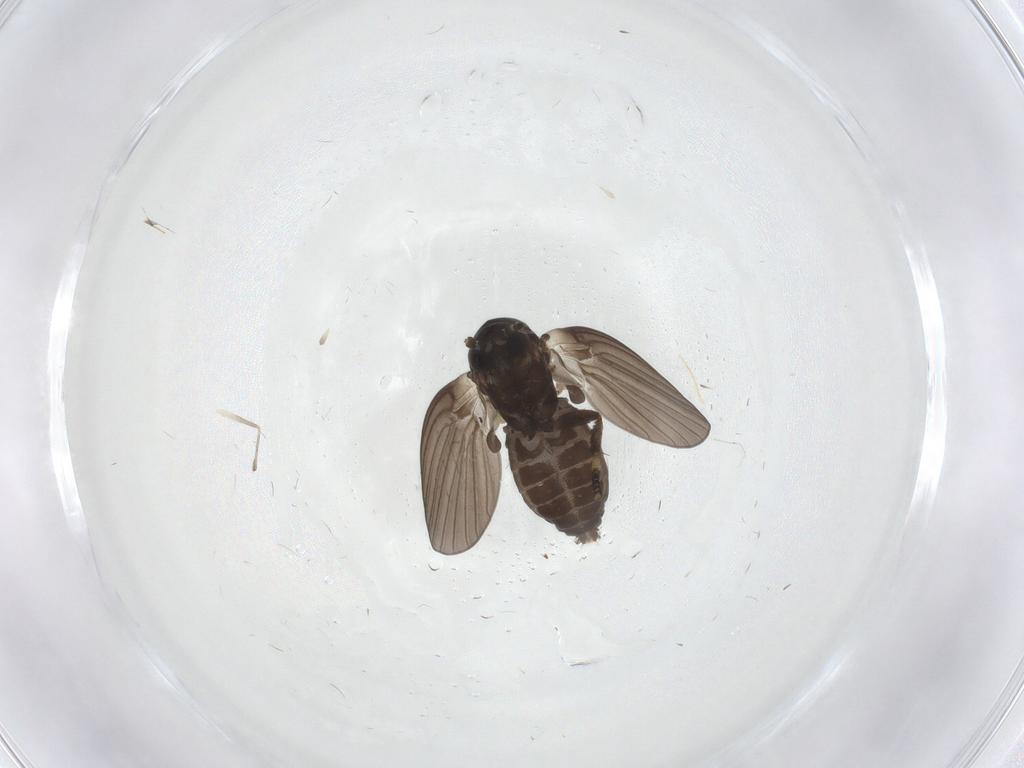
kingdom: Animalia
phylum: Arthropoda
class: Insecta
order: Diptera
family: Psychodidae
